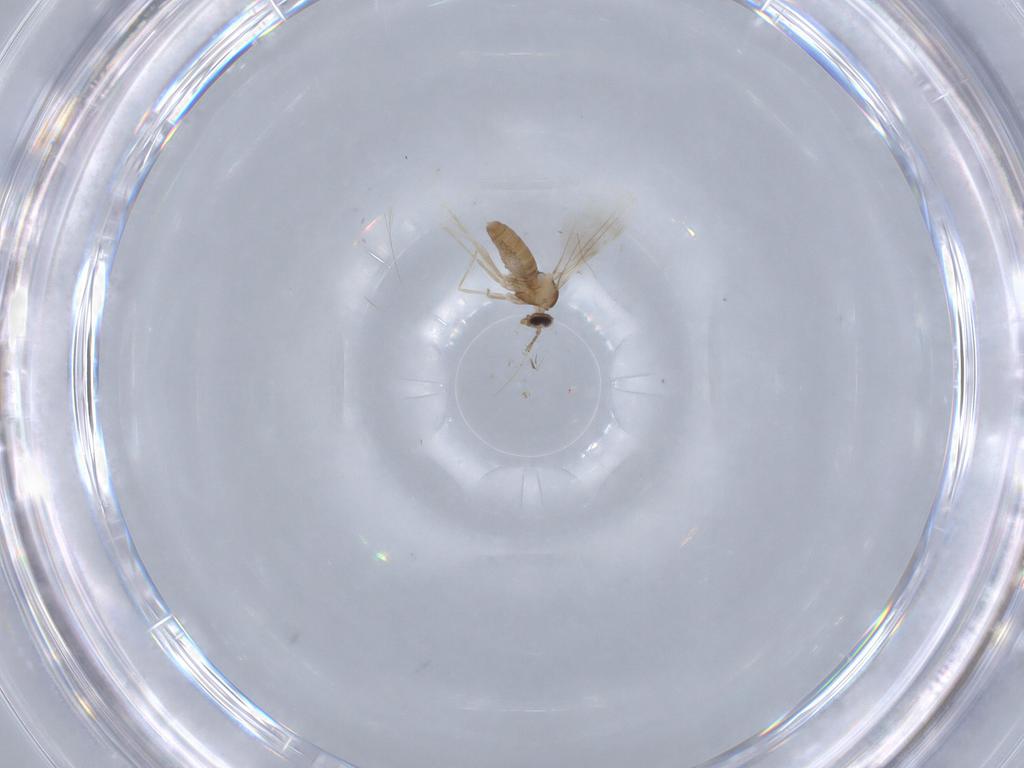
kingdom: Animalia
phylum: Arthropoda
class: Insecta
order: Diptera
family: Cecidomyiidae
